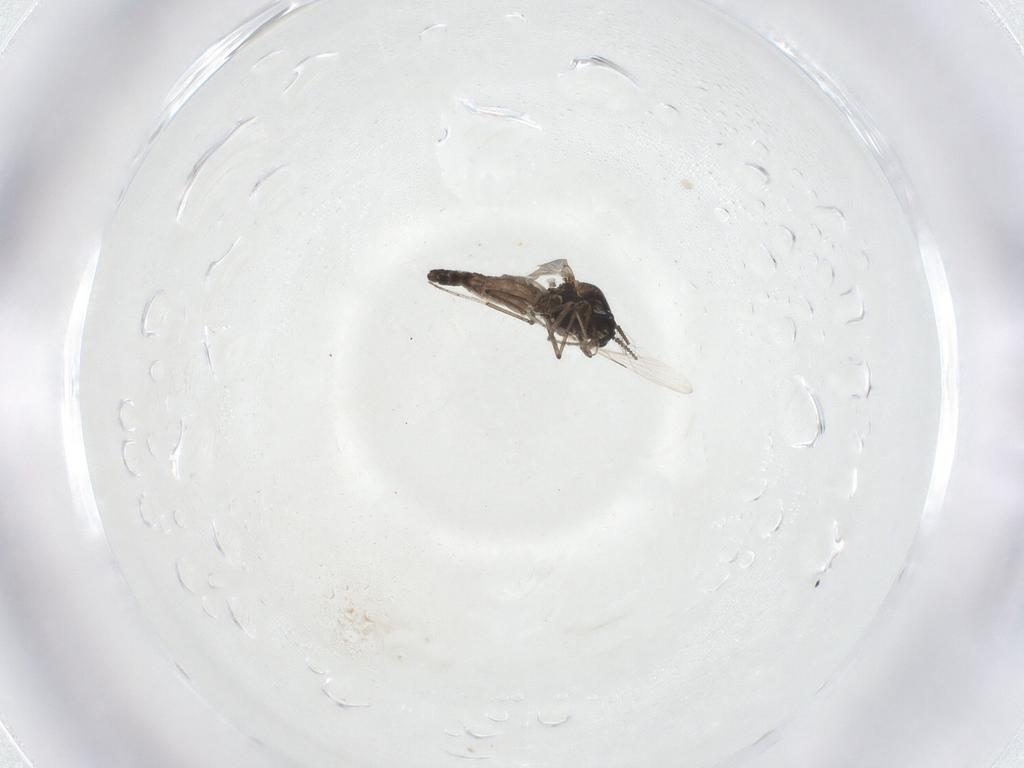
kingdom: Animalia
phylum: Arthropoda
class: Insecta
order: Diptera
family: Ceratopogonidae
